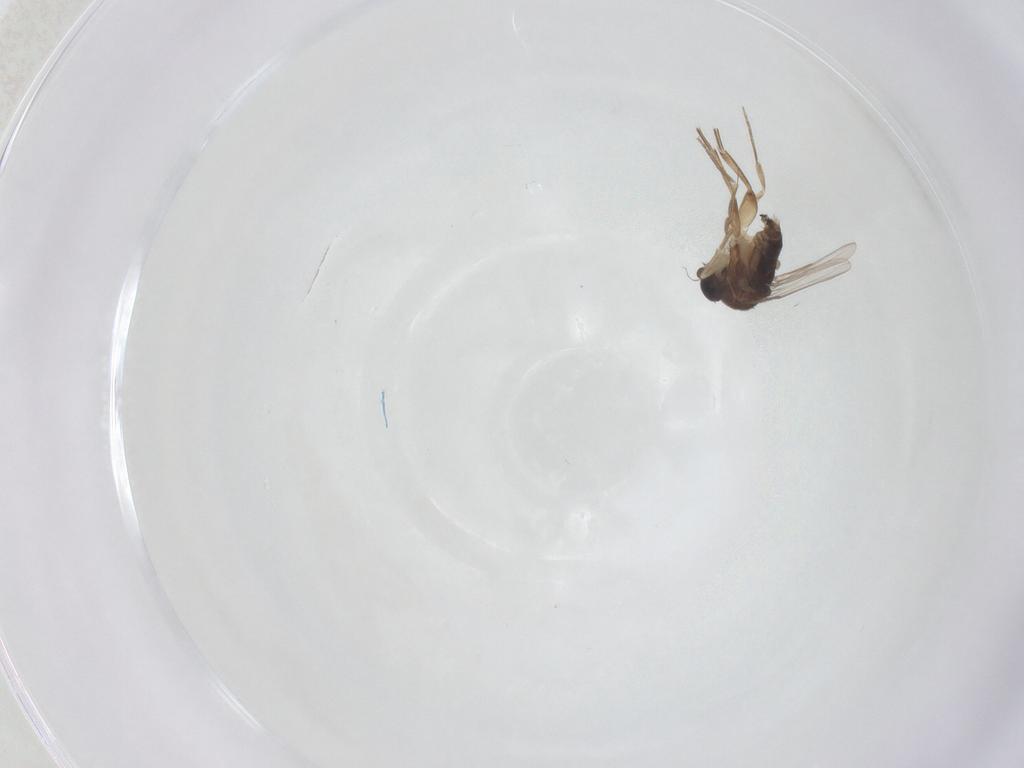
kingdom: Animalia
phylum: Arthropoda
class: Insecta
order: Diptera
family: Phoridae
